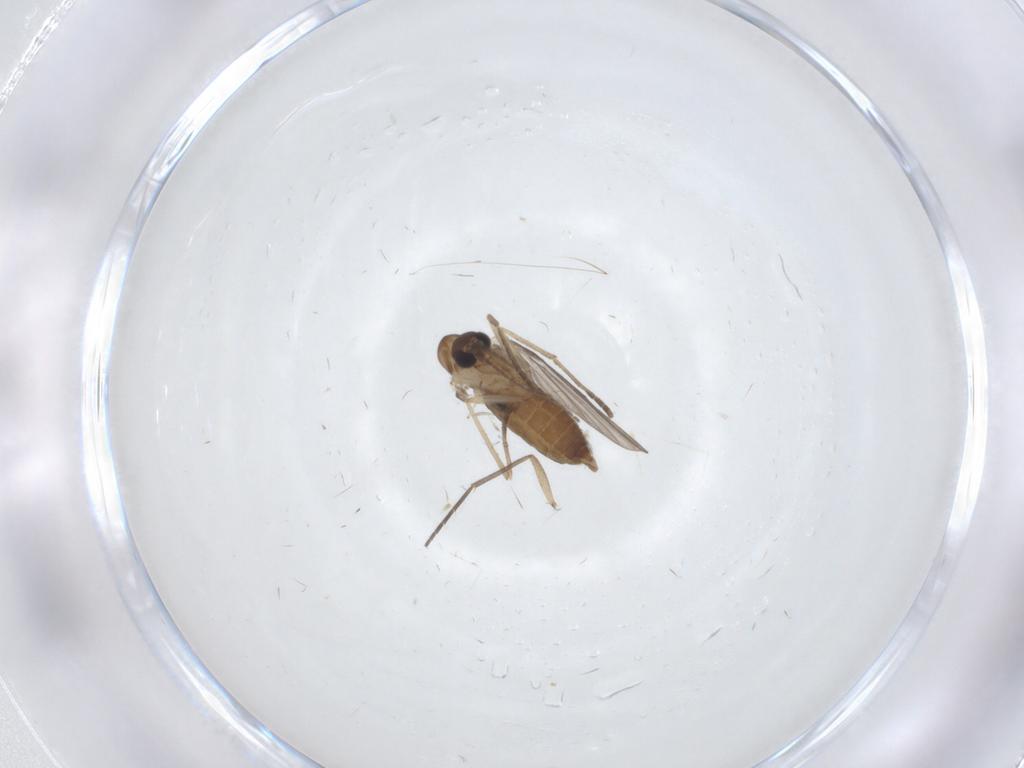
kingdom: Animalia
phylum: Arthropoda
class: Insecta
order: Diptera
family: Sciaridae
